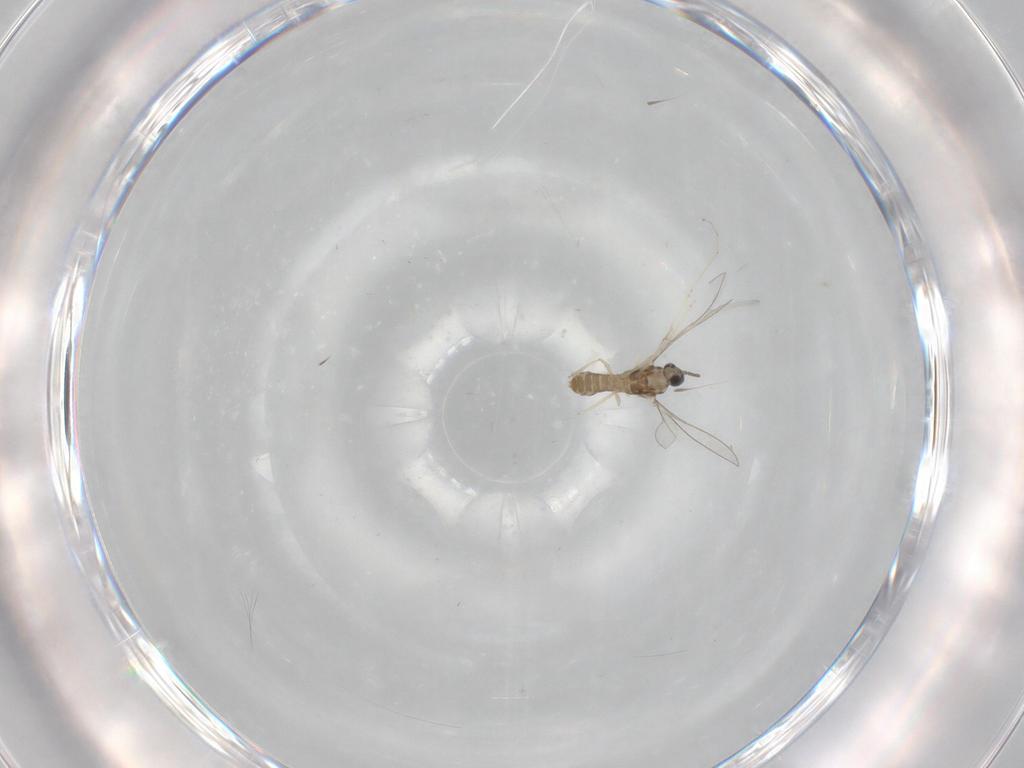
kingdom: Animalia
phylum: Arthropoda
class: Insecta
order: Diptera
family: Cecidomyiidae
